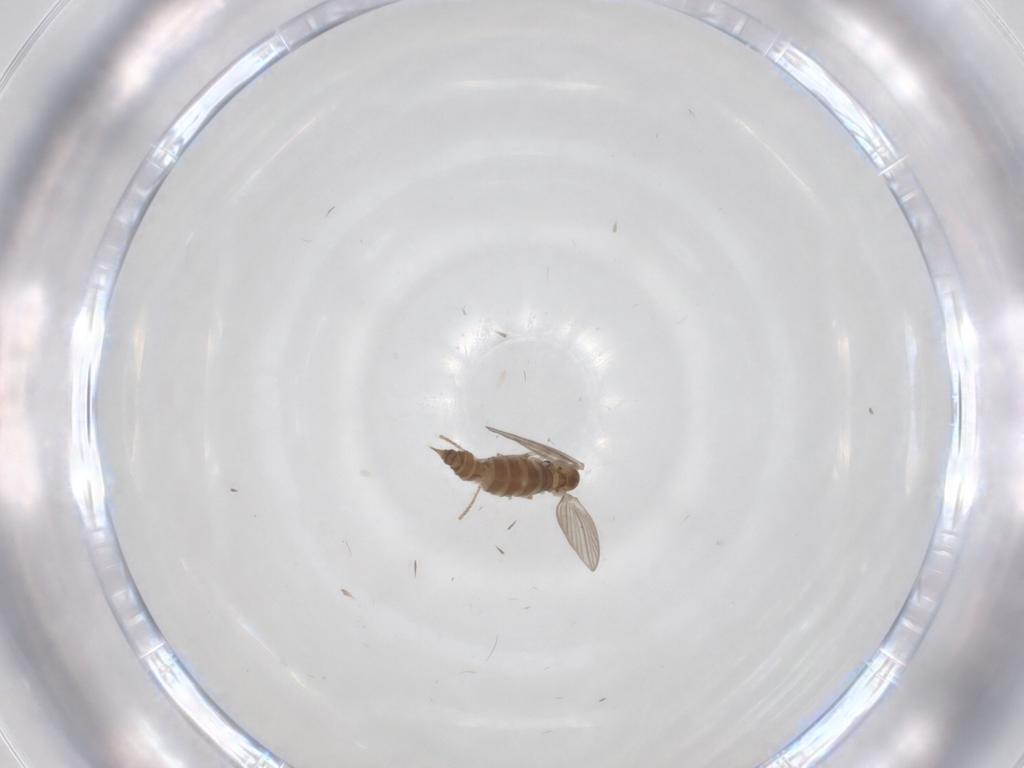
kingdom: Animalia
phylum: Arthropoda
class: Insecta
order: Diptera
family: Psychodidae
